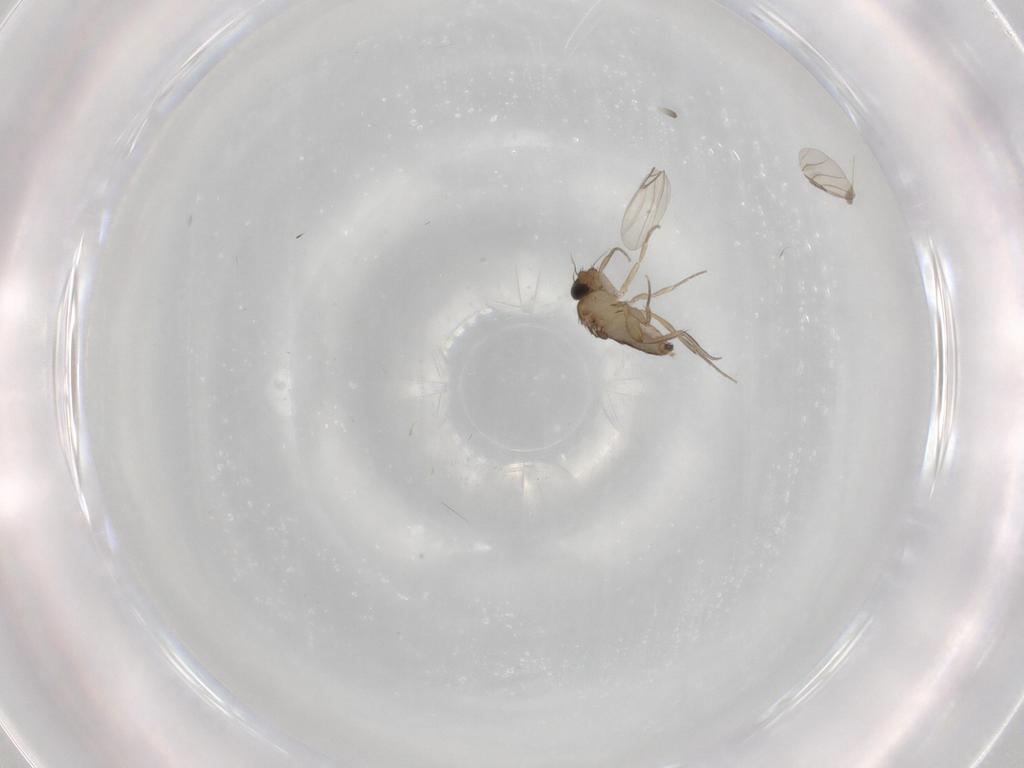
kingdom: Animalia
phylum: Arthropoda
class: Insecta
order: Diptera
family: Phoridae
